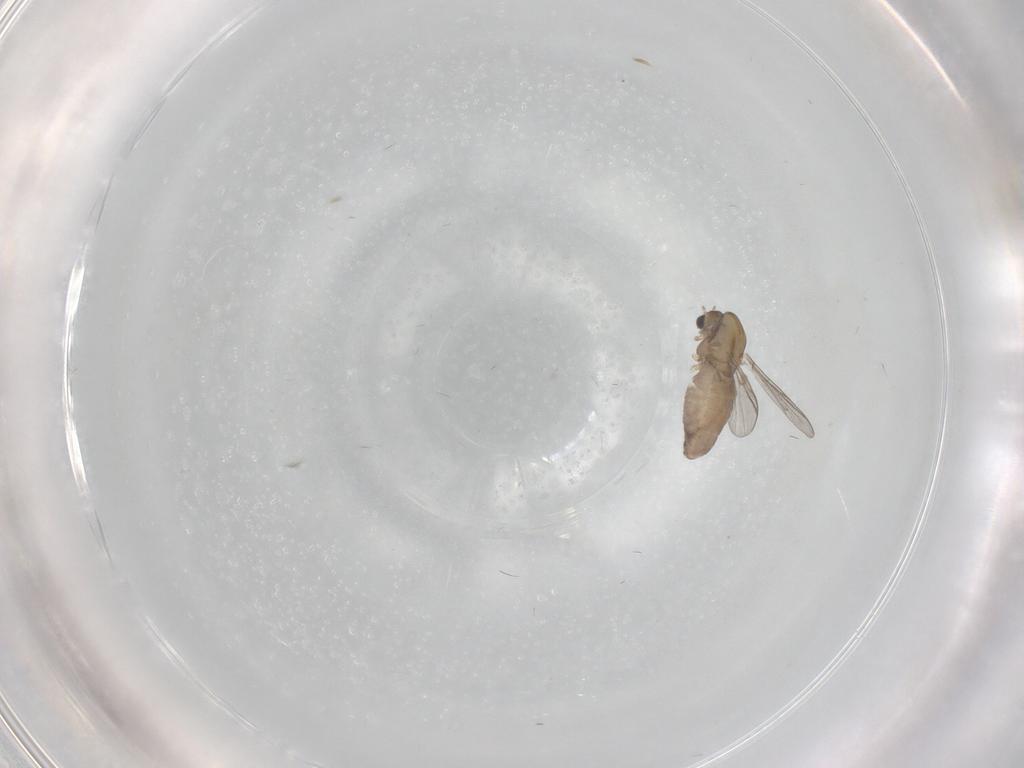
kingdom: Animalia
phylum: Arthropoda
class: Insecta
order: Diptera
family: Chironomidae
